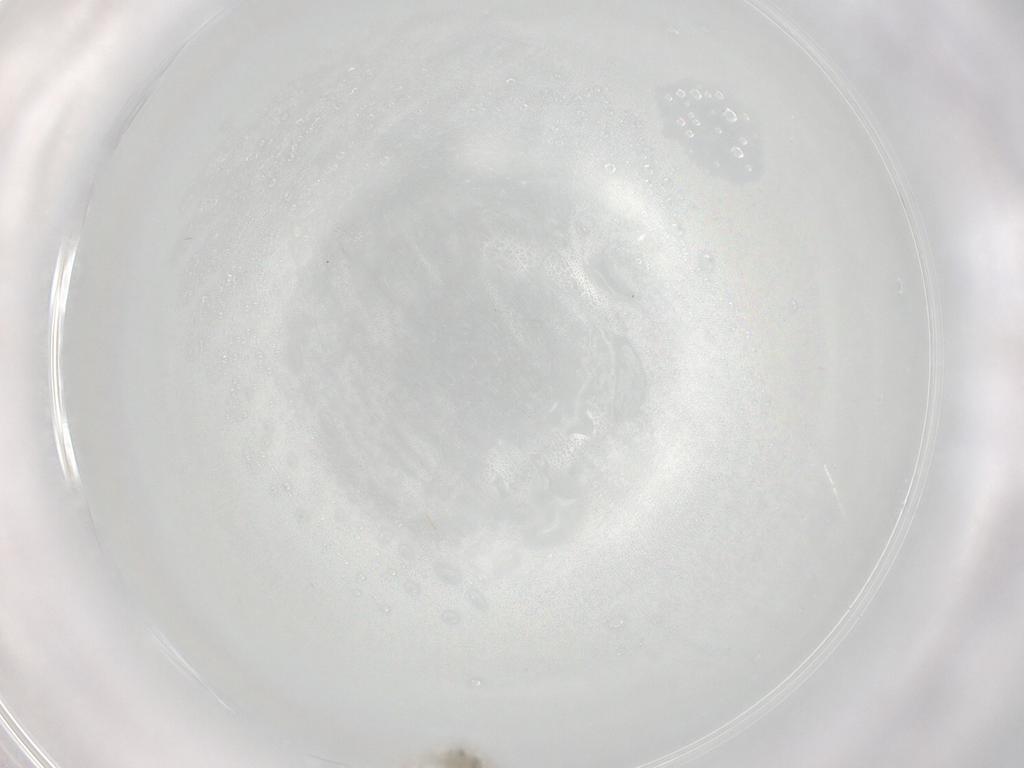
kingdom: Animalia
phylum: Arthropoda
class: Insecta
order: Diptera
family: Cecidomyiidae
